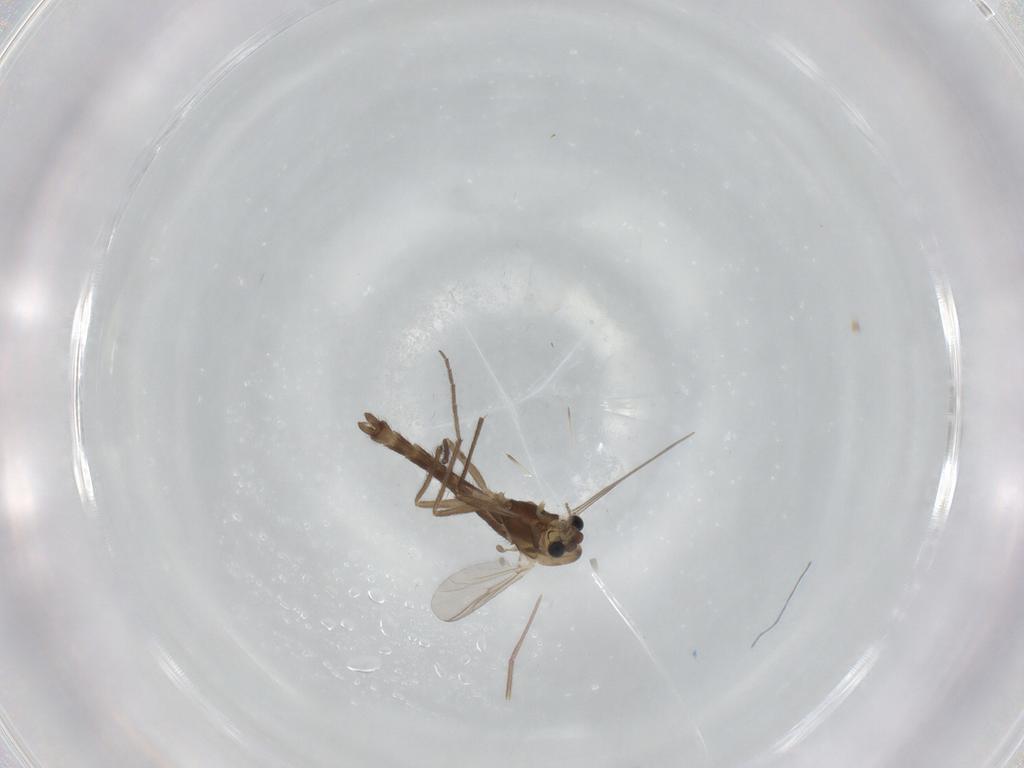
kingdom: Animalia
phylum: Arthropoda
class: Insecta
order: Diptera
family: Chironomidae
